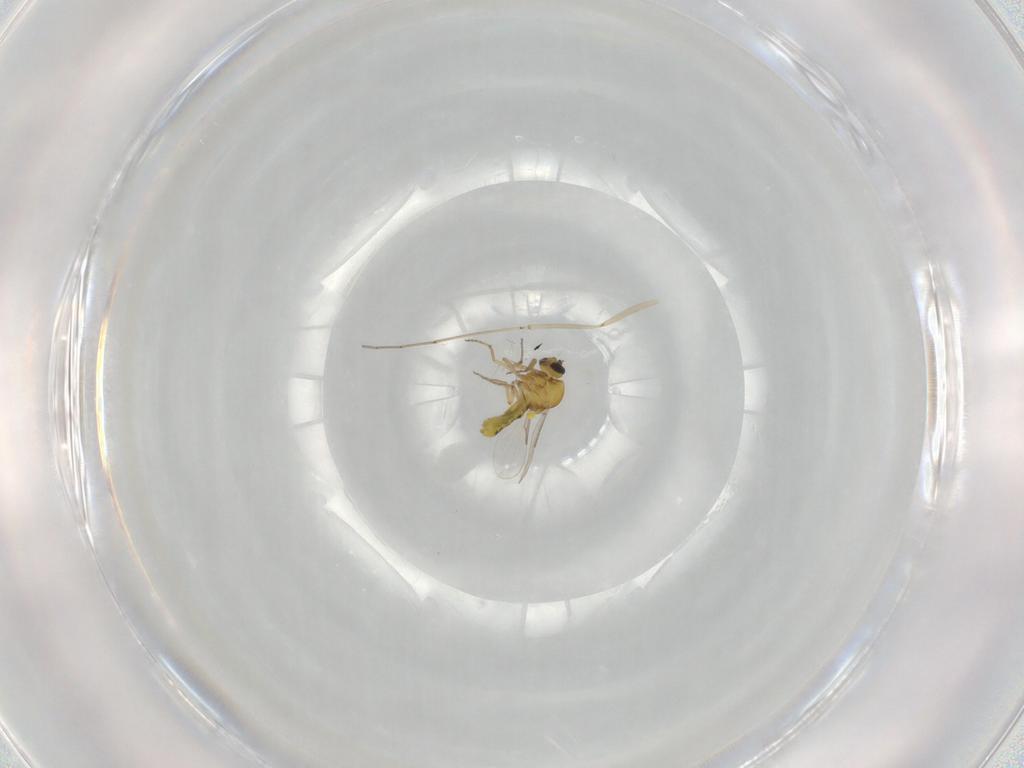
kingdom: Animalia
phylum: Arthropoda
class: Insecta
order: Diptera
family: Cecidomyiidae
